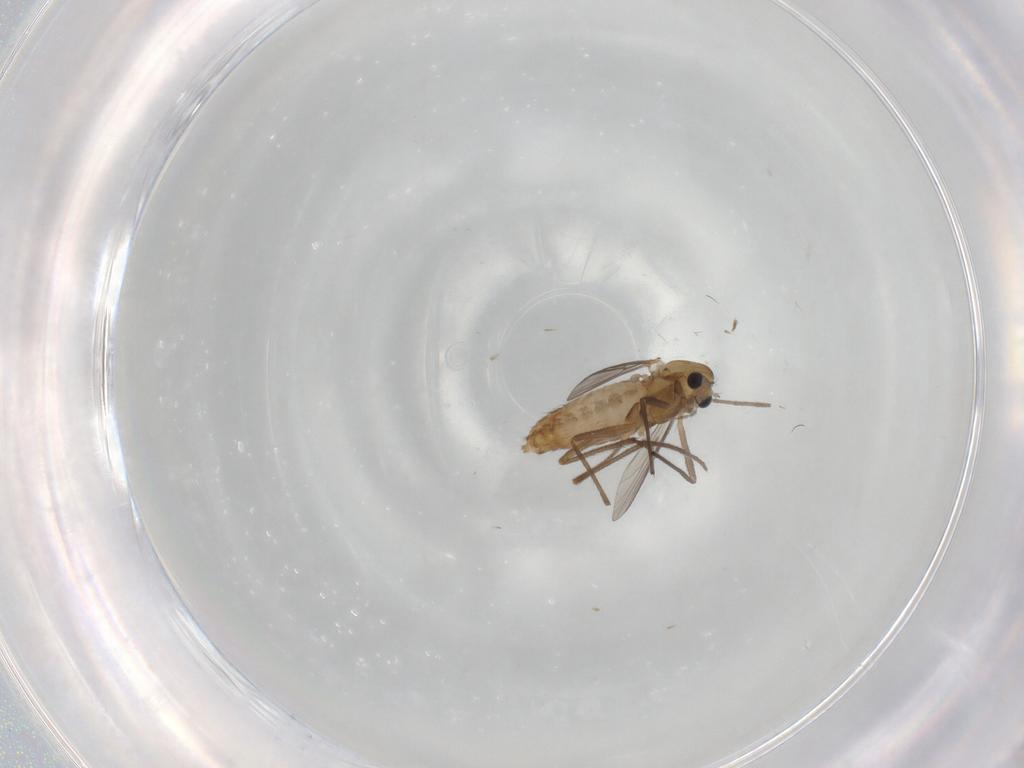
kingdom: Animalia
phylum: Arthropoda
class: Insecta
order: Diptera
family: Chironomidae
